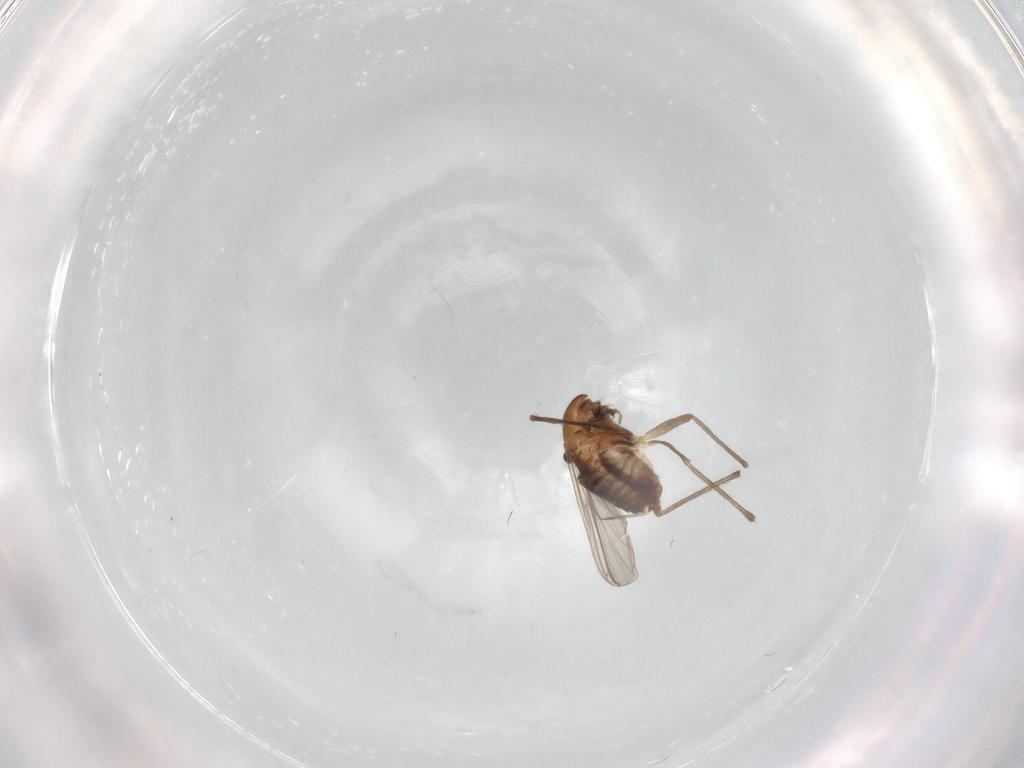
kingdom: Animalia
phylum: Arthropoda
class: Insecta
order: Diptera
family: Chironomidae
